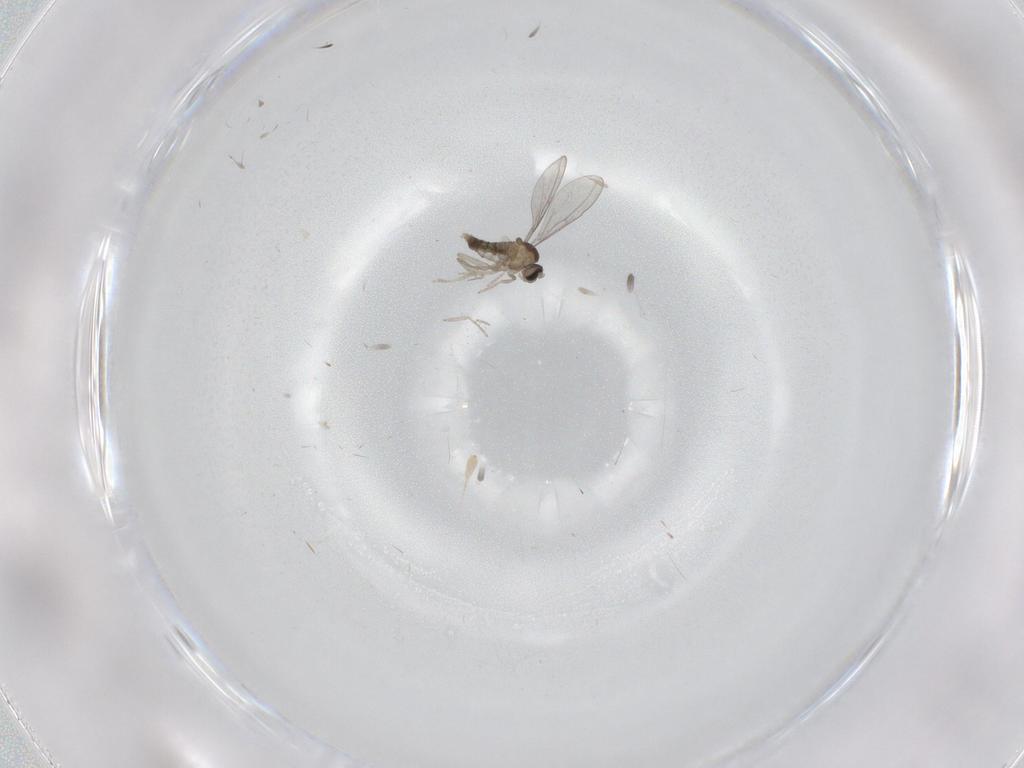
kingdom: Animalia
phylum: Arthropoda
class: Insecta
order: Diptera
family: Cecidomyiidae
